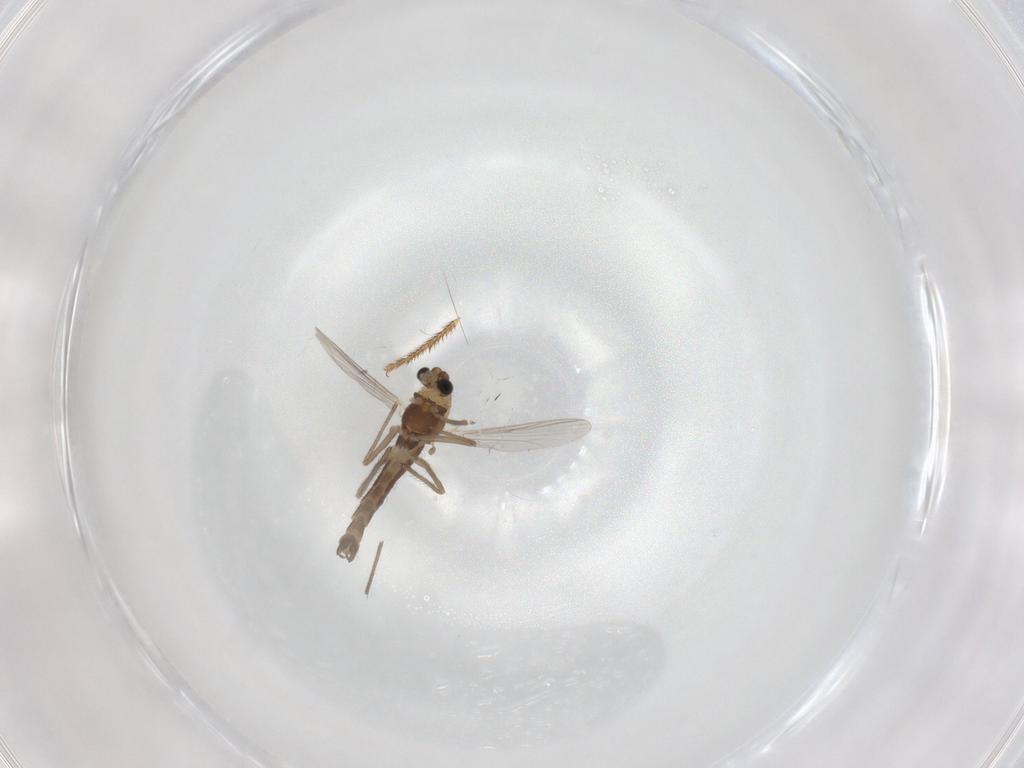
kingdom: Animalia
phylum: Arthropoda
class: Insecta
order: Diptera
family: Chironomidae
